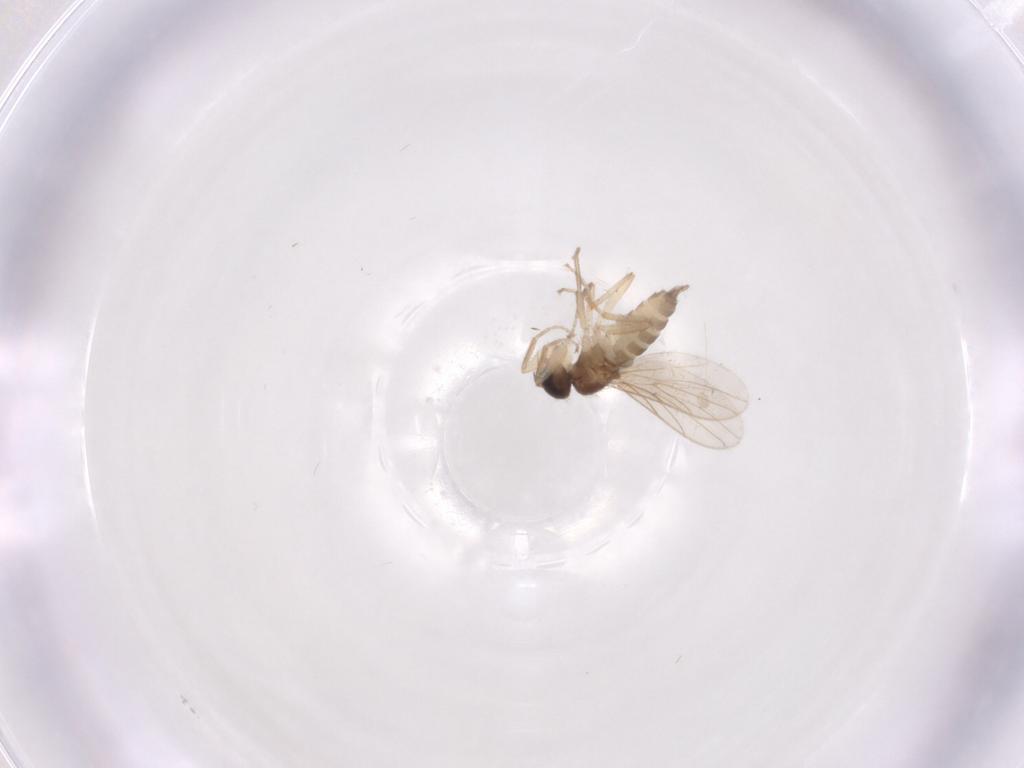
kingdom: Animalia
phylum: Arthropoda
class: Insecta
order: Diptera
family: Hybotidae
